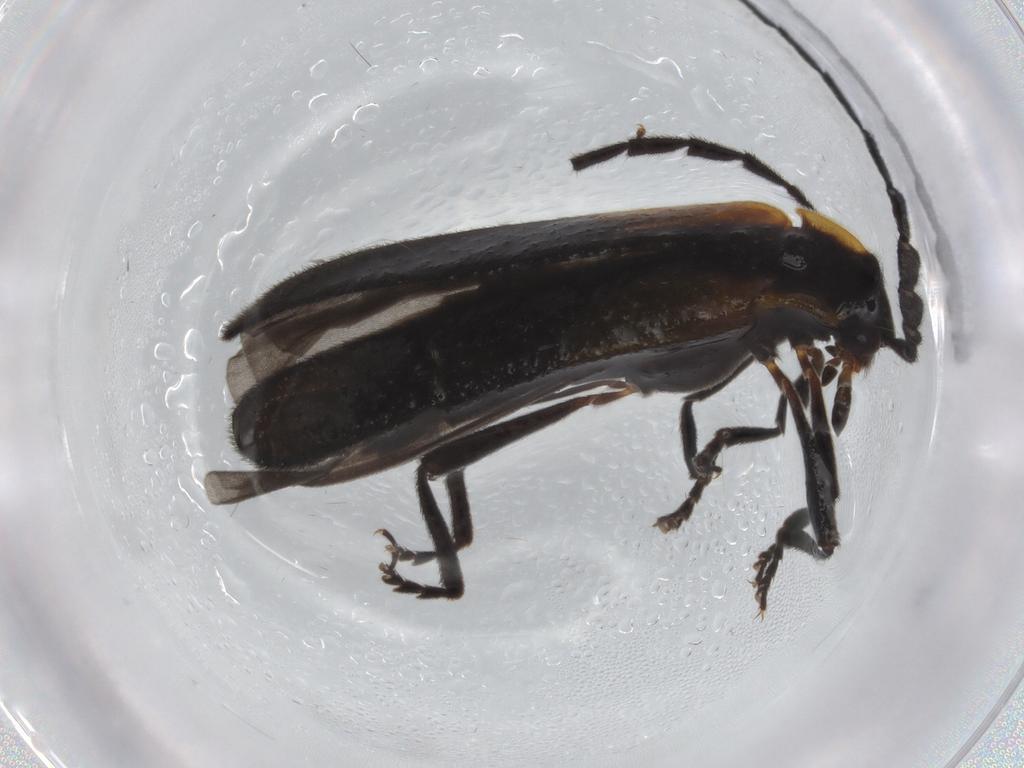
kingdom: Animalia
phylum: Arthropoda
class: Insecta
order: Coleoptera
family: Lycidae
